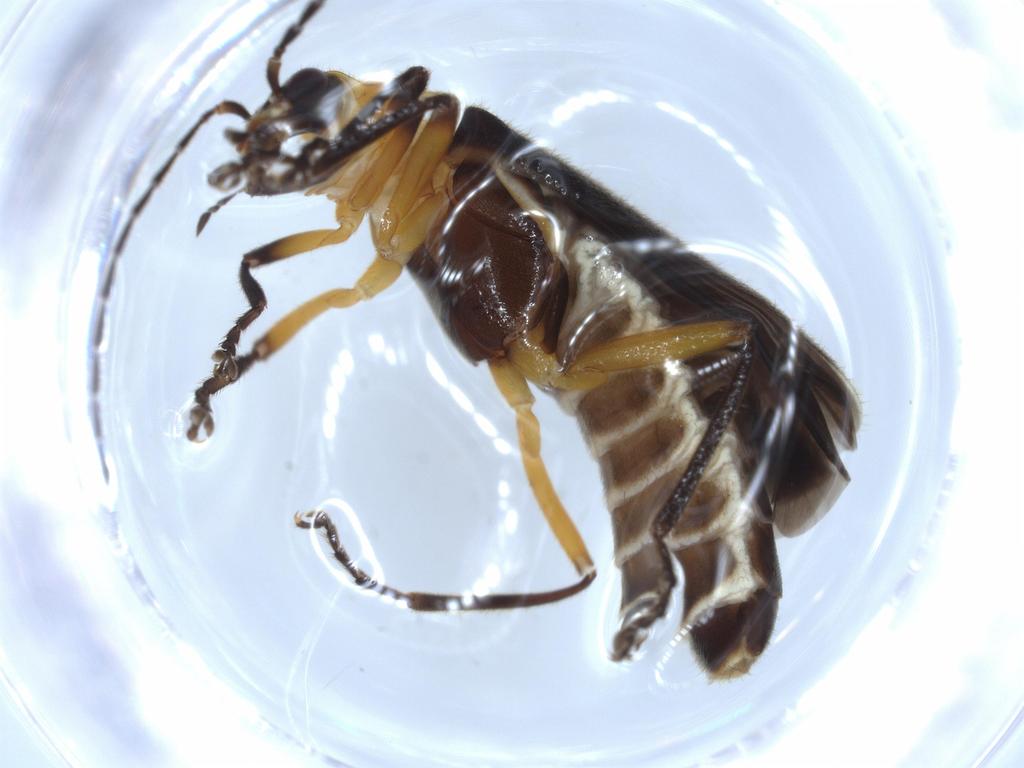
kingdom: Animalia
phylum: Arthropoda
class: Insecta
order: Coleoptera
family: Cantharidae
